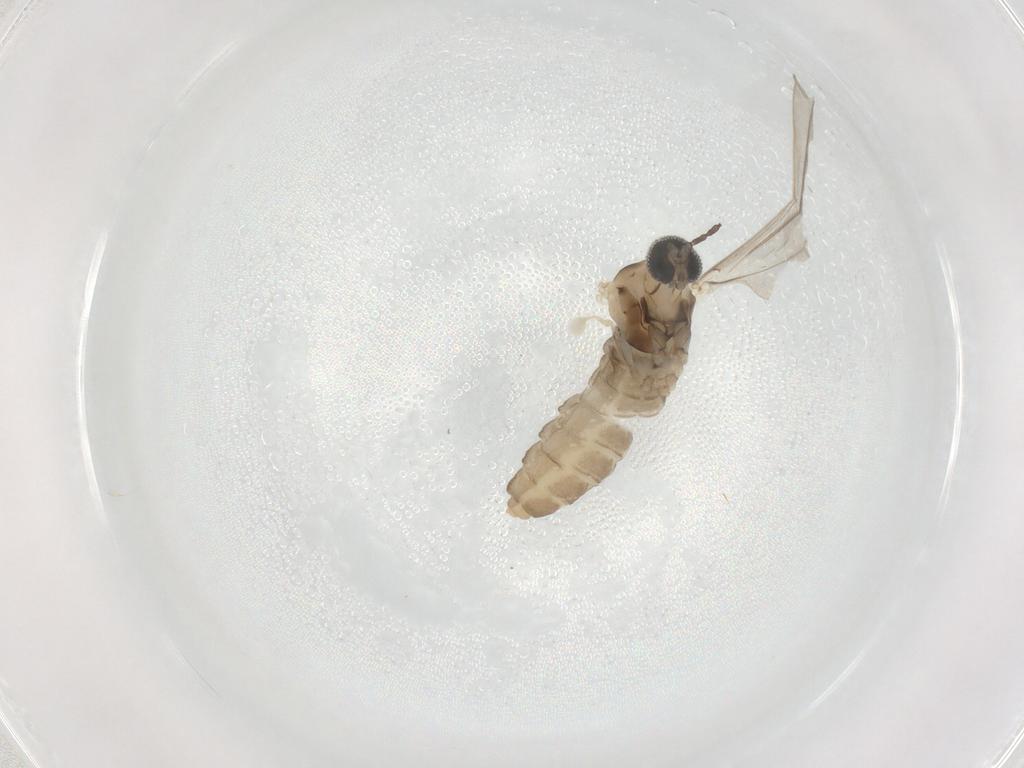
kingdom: Animalia
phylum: Arthropoda
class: Insecta
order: Diptera
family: Cecidomyiidae
